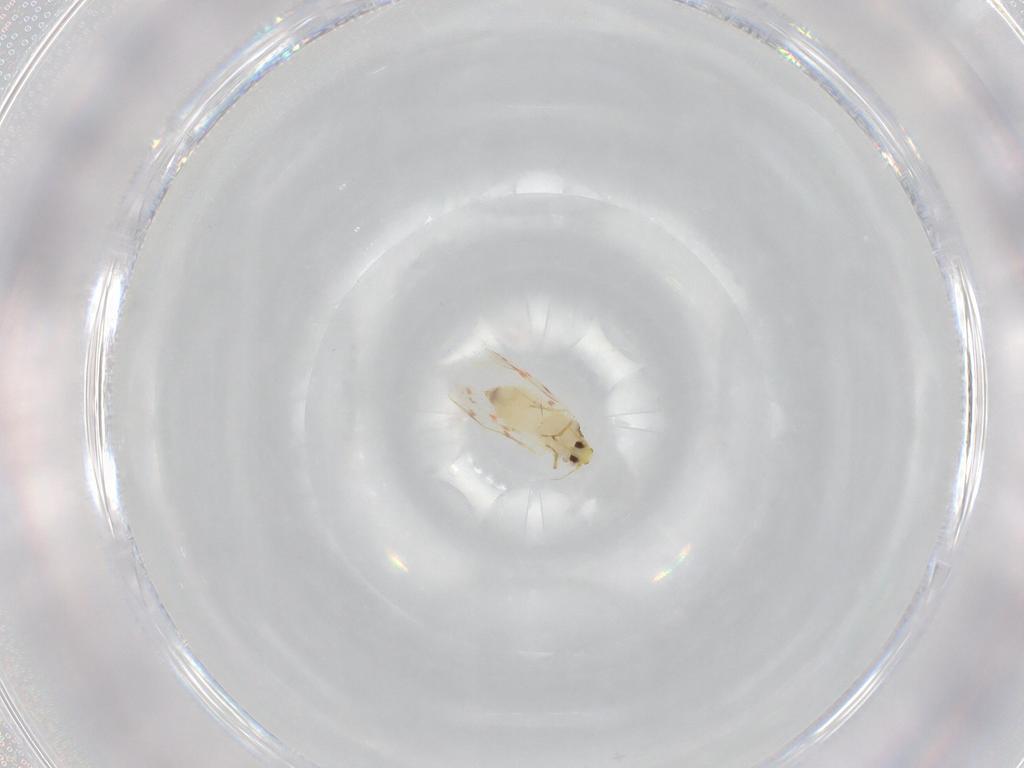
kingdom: Animalia
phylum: Arthropoda
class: Insecta
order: Hemiptera
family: Aleyrodidae
